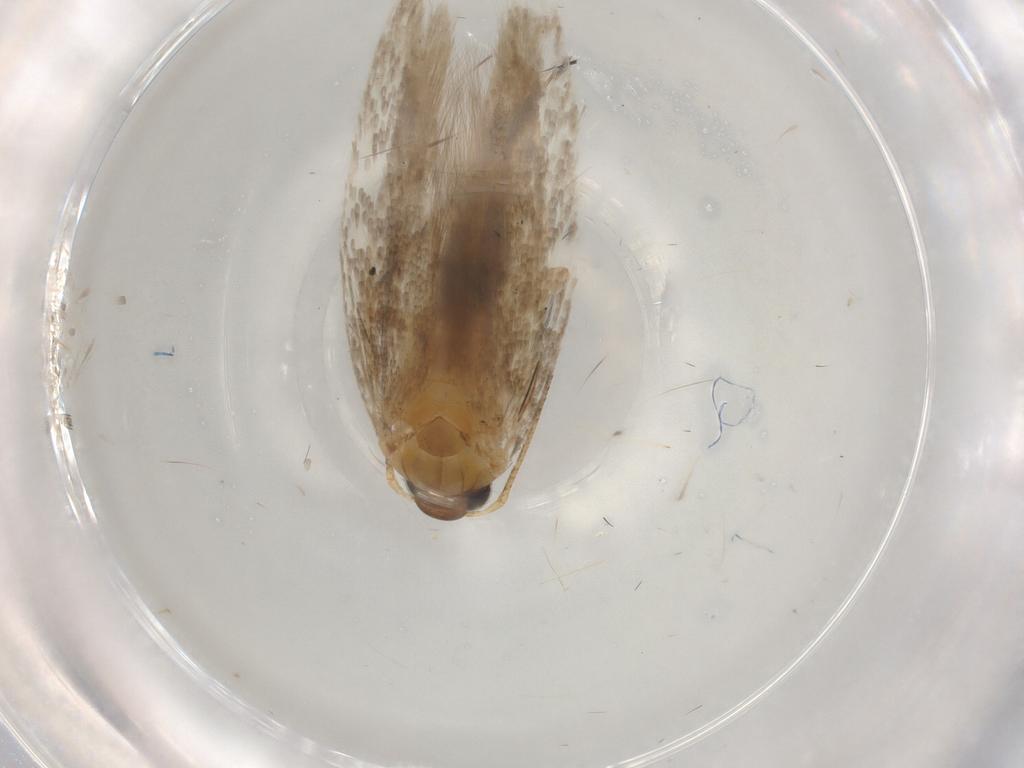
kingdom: Animalia
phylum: Arthropoda
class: Insecta
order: Lepidoptera
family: Gelechiidae
